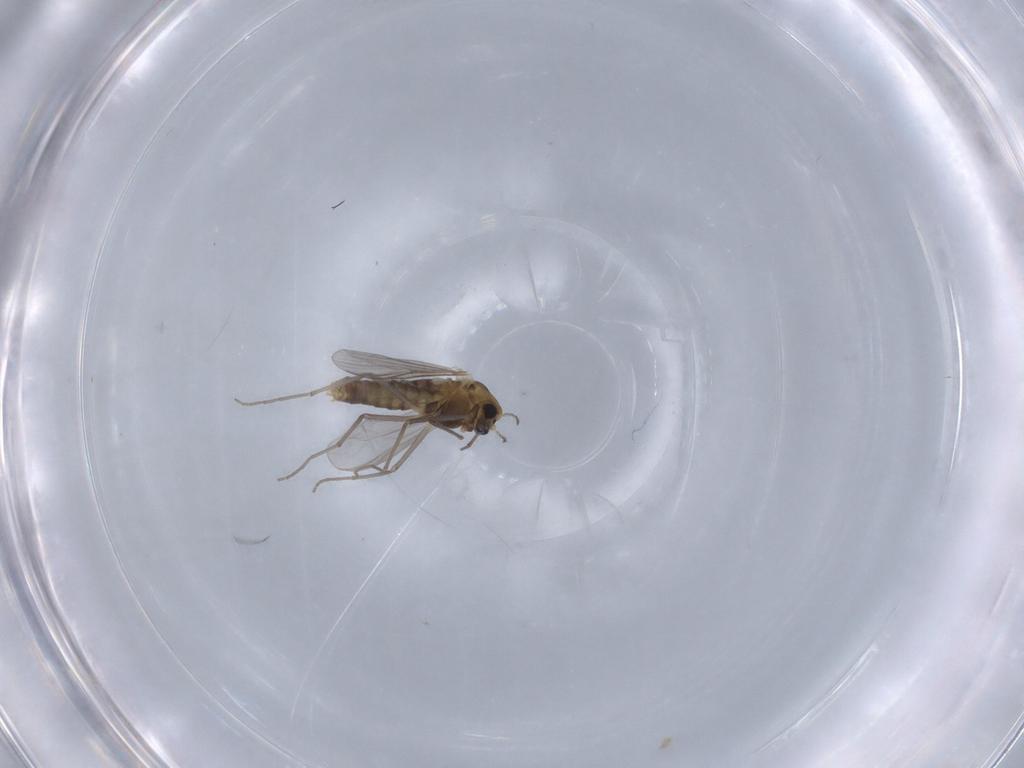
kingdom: Animalia
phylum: Arthropoda
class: Insecta
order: Diptera
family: Chironomidae
